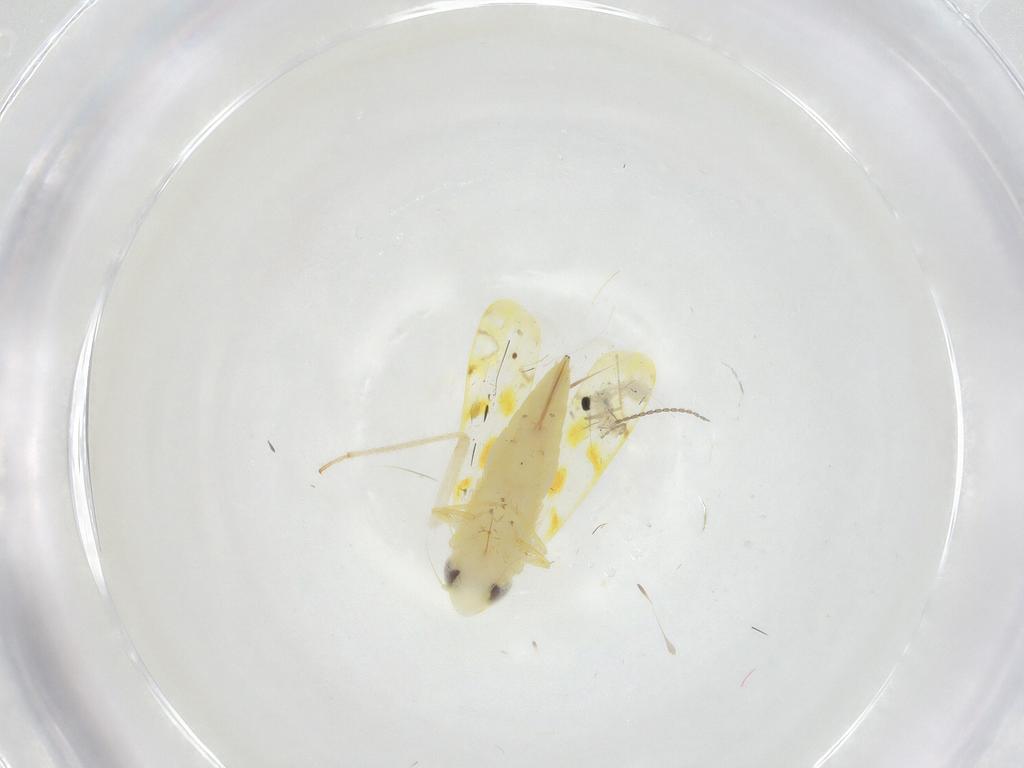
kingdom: Animalia
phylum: Arthropoda
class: Insecta
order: Hemiptera
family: Cicadellidae
